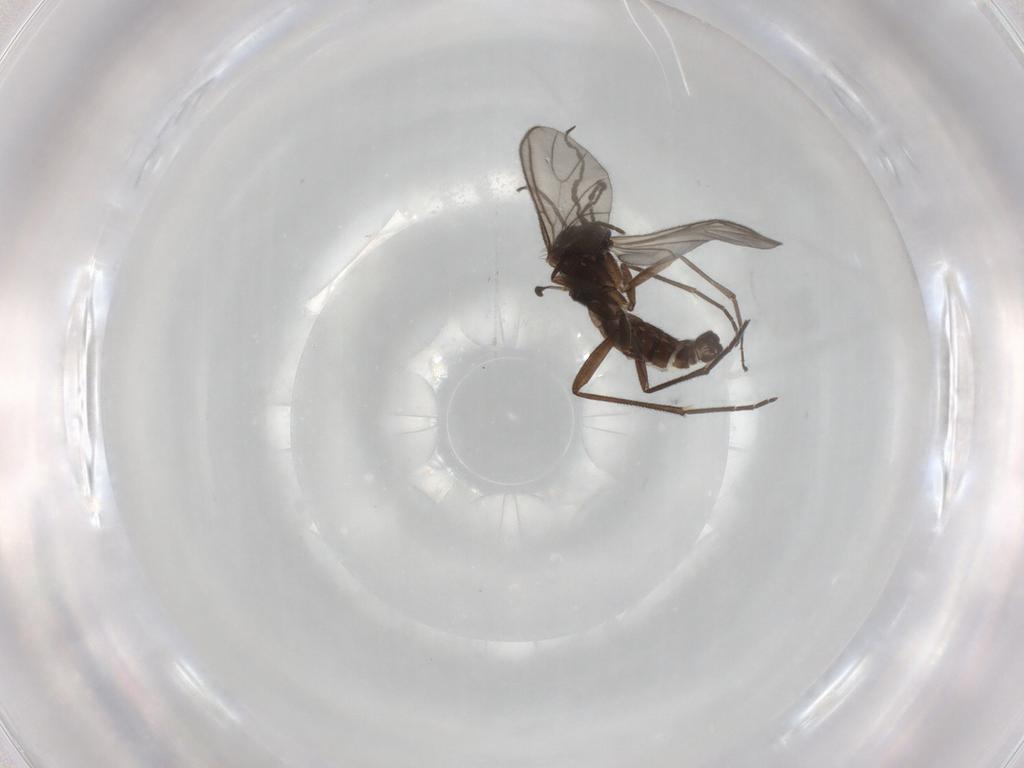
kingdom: Animalia
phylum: Arthropoda
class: Insecta
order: Diptera
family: Sciaridae
